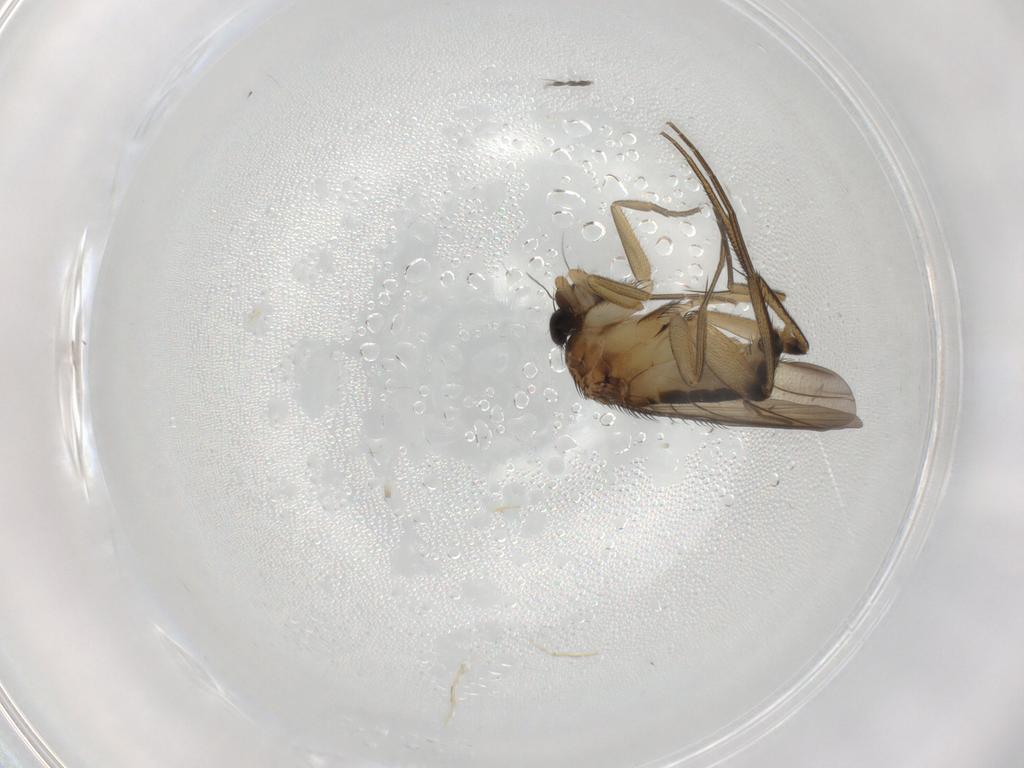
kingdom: Animalia
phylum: Arthropoda
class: Insecta
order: Diptera
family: Phoridae
